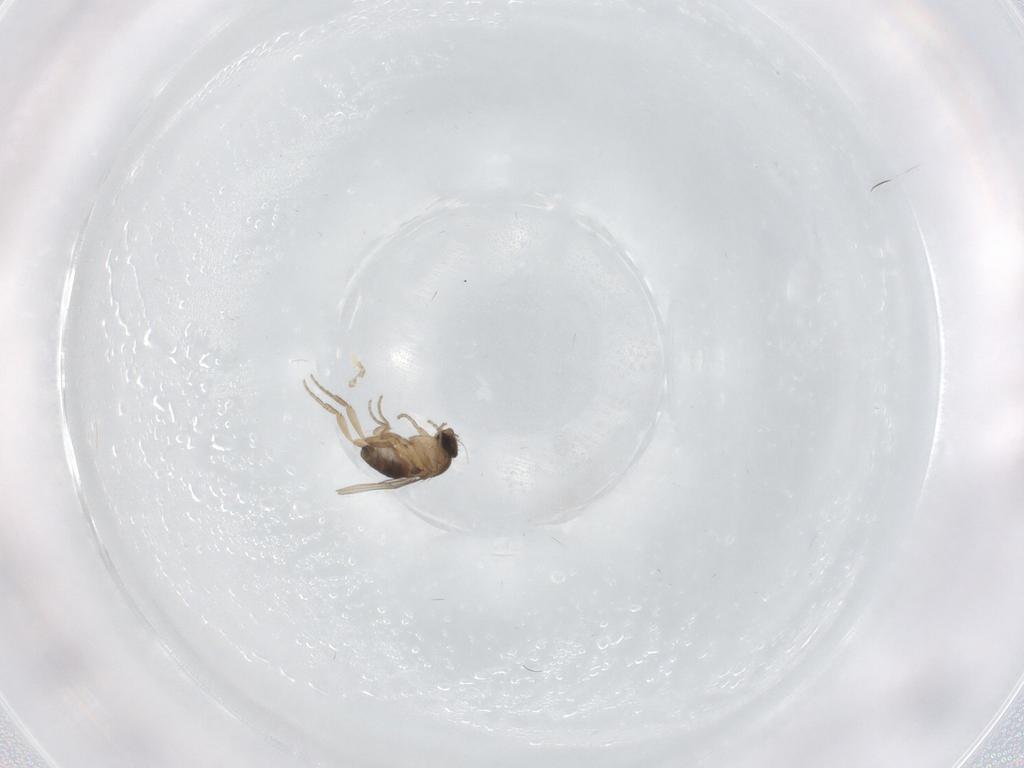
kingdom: Animalia
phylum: Arthropoda
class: Insecta
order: Diptera
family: Phoridae
